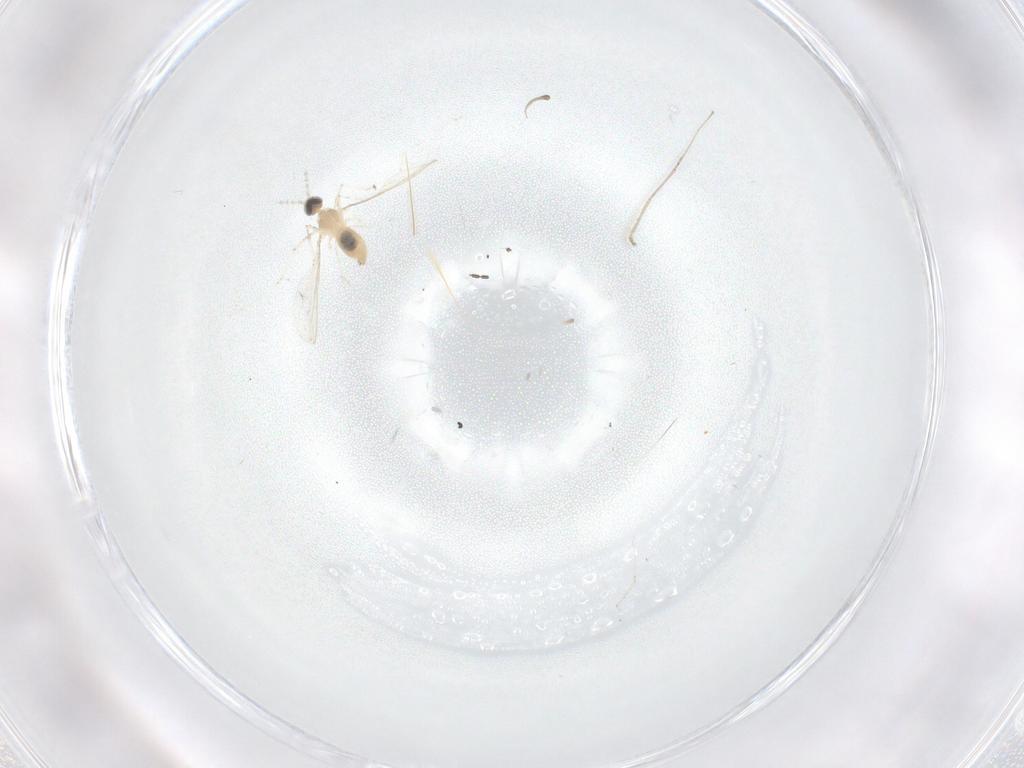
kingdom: Animalia
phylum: Arthropoda
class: Insecta
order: Diptera
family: Cecidomyiidae
